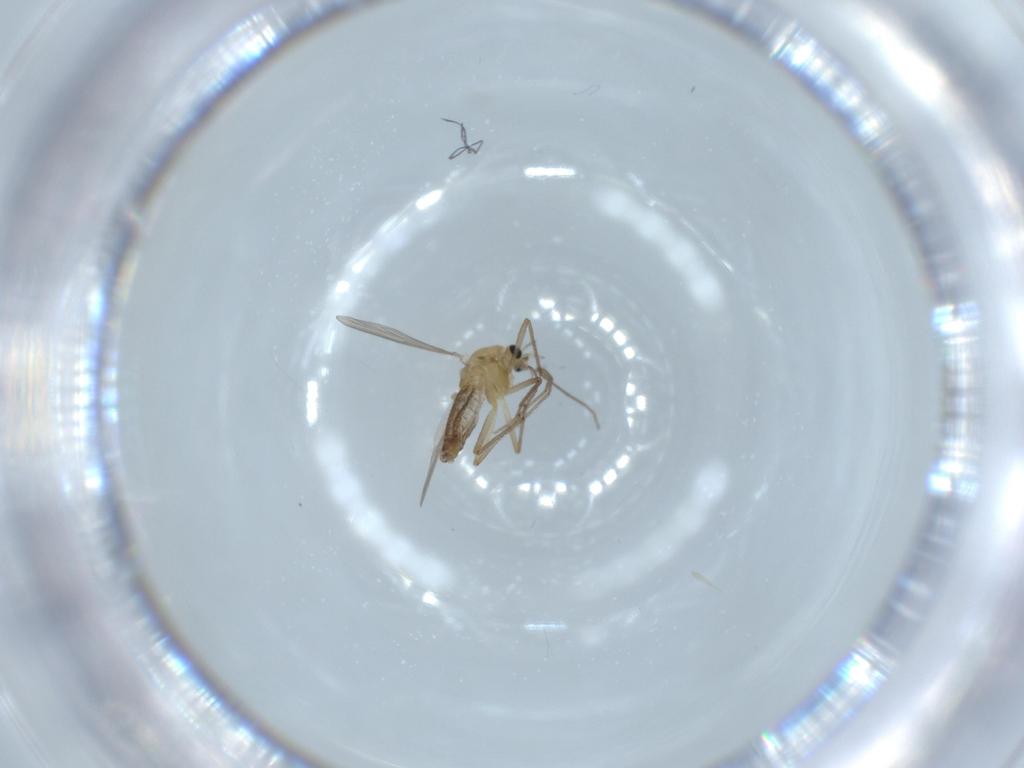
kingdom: Animalia
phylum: Arthropoda
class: Insecta
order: Diptera
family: Chironomidae
